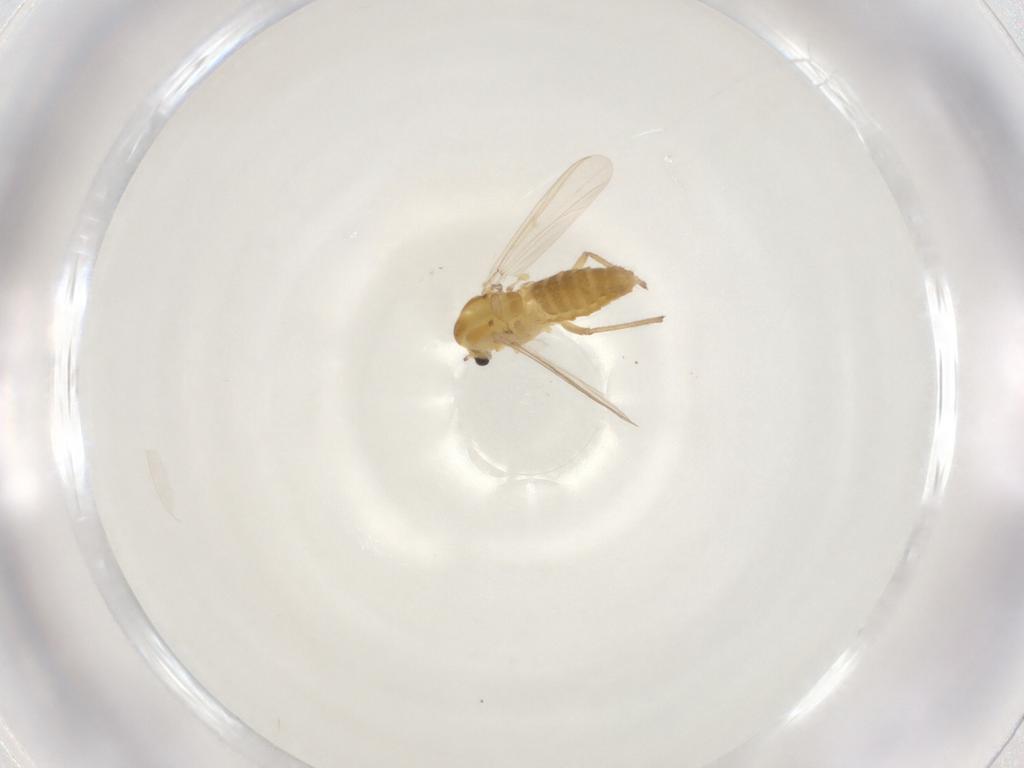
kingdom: Animalia
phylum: Arthropoda
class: Insecta
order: Diptera
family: Chironomidae
